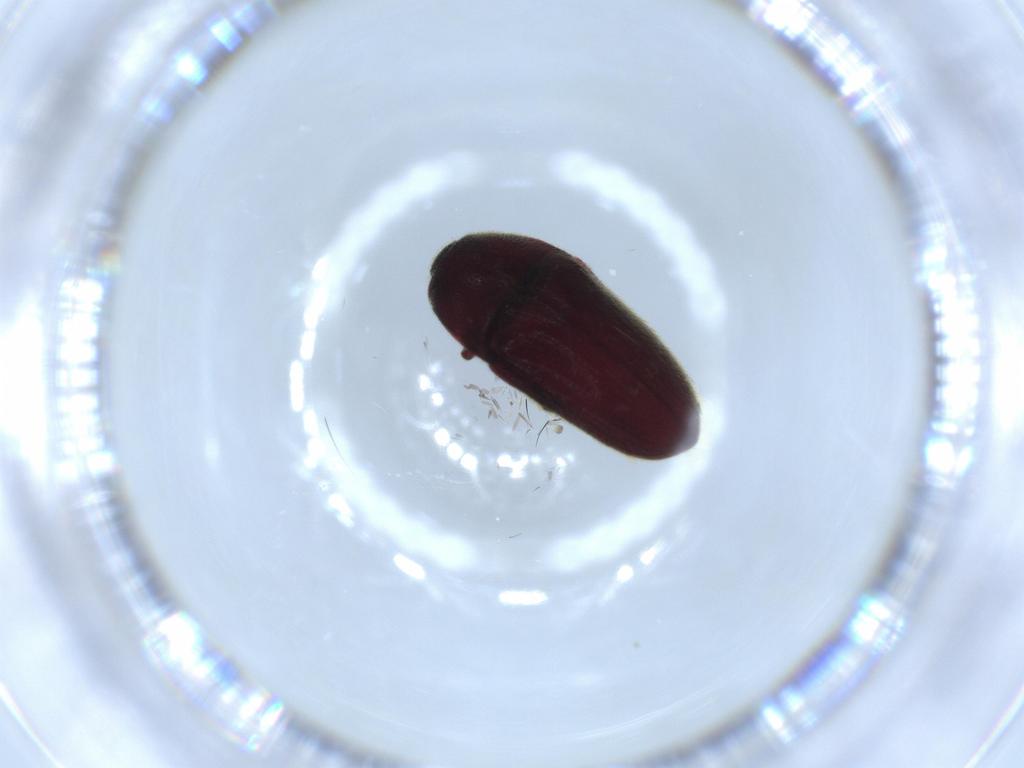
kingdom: Animalia
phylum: Arthropoda
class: Insecta
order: Coleoptera
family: Throscidae
